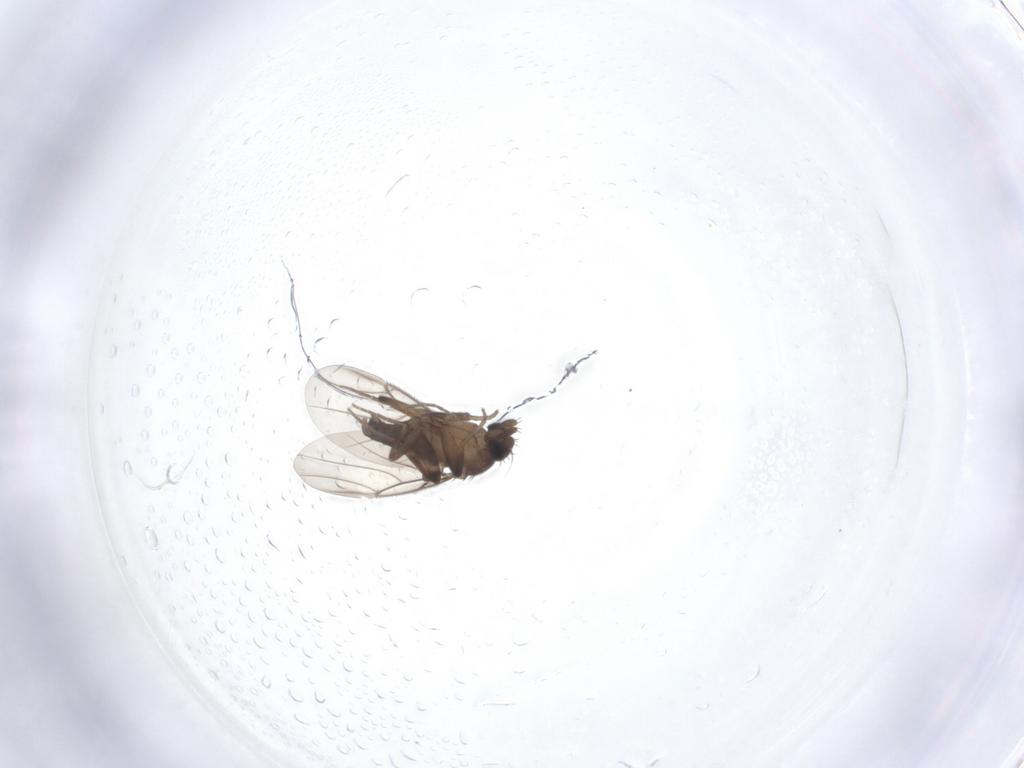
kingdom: Animalia
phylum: Arthropoda
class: Insecta
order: Diptera
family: Phoridae
